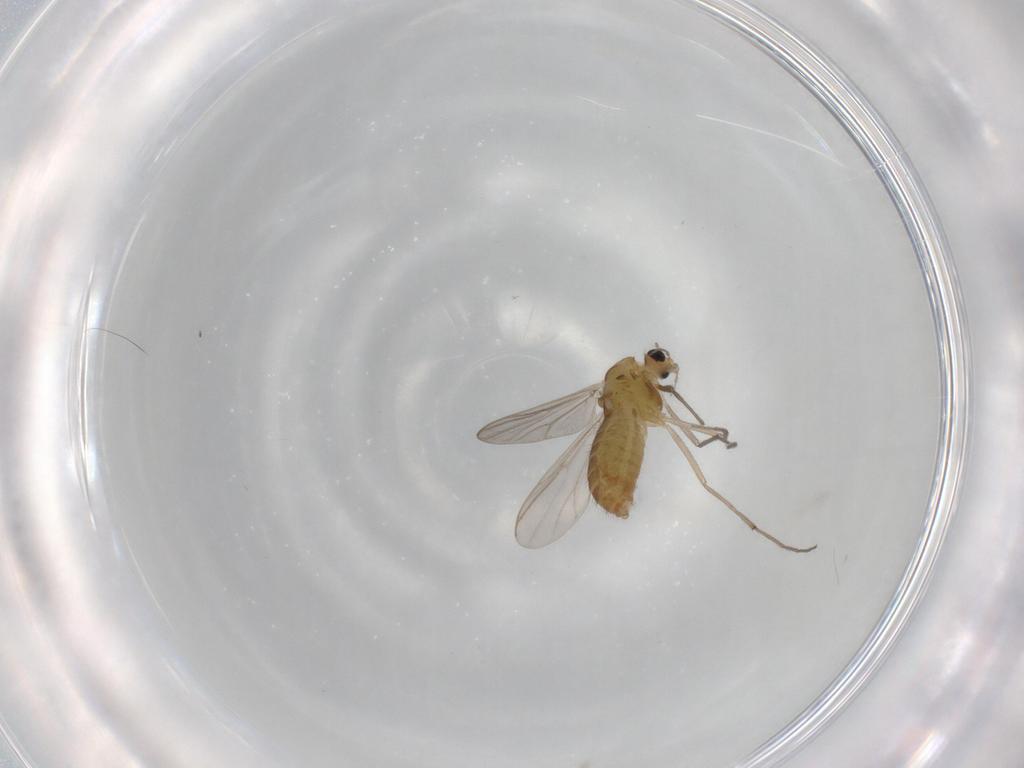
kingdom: Animalia
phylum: Arthropoda
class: Insecta
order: Diptera
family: Chironomidae
